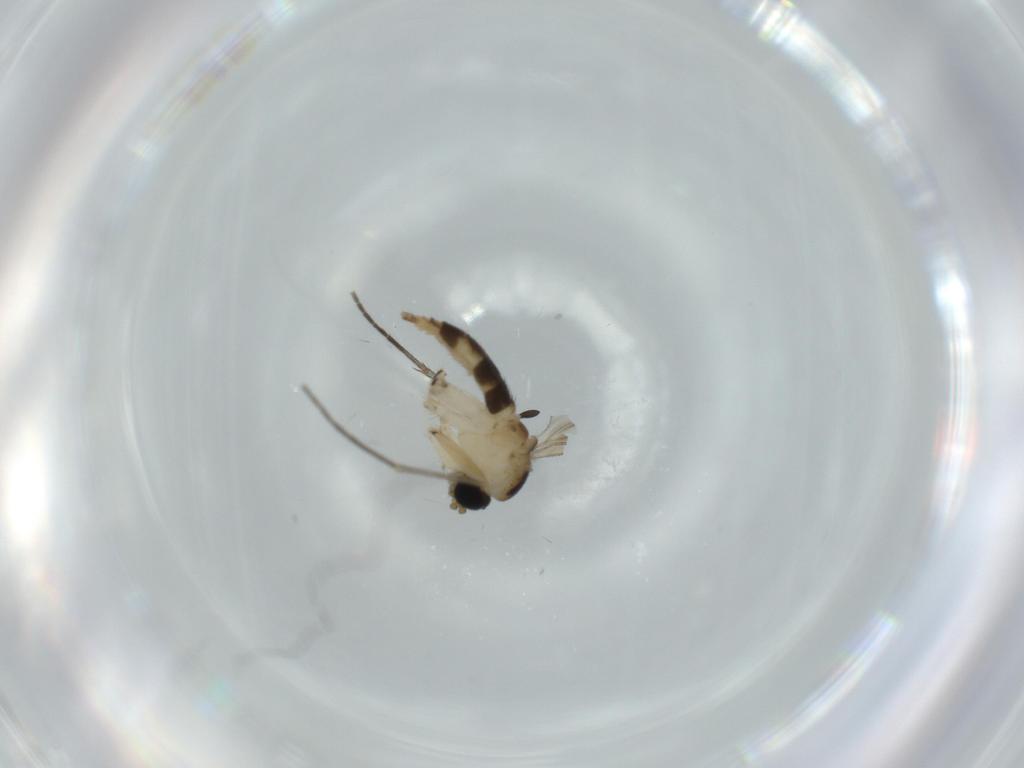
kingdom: Animalia
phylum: Arthropoda
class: Insecta
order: Diptera
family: Sciaridae
